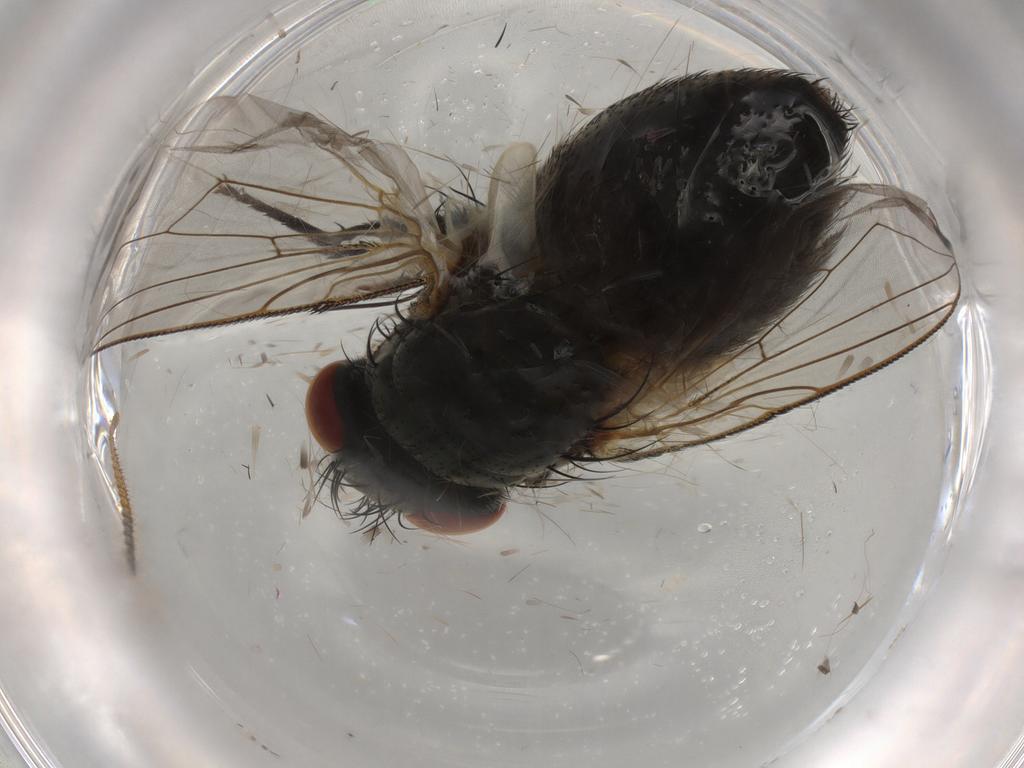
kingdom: Animalia
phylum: Arthropoda
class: Insecta
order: Diptera
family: Sarcophagidae
